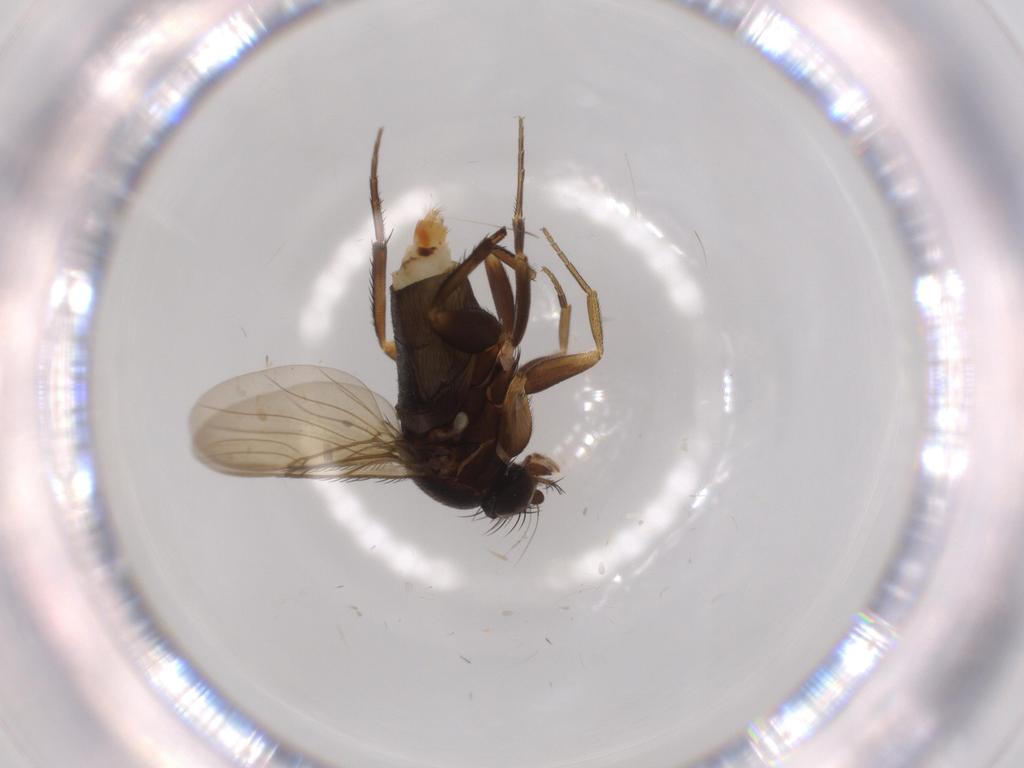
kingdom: Animalia
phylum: Arthropoda
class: Insecta
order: Diptera
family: Phoridae
